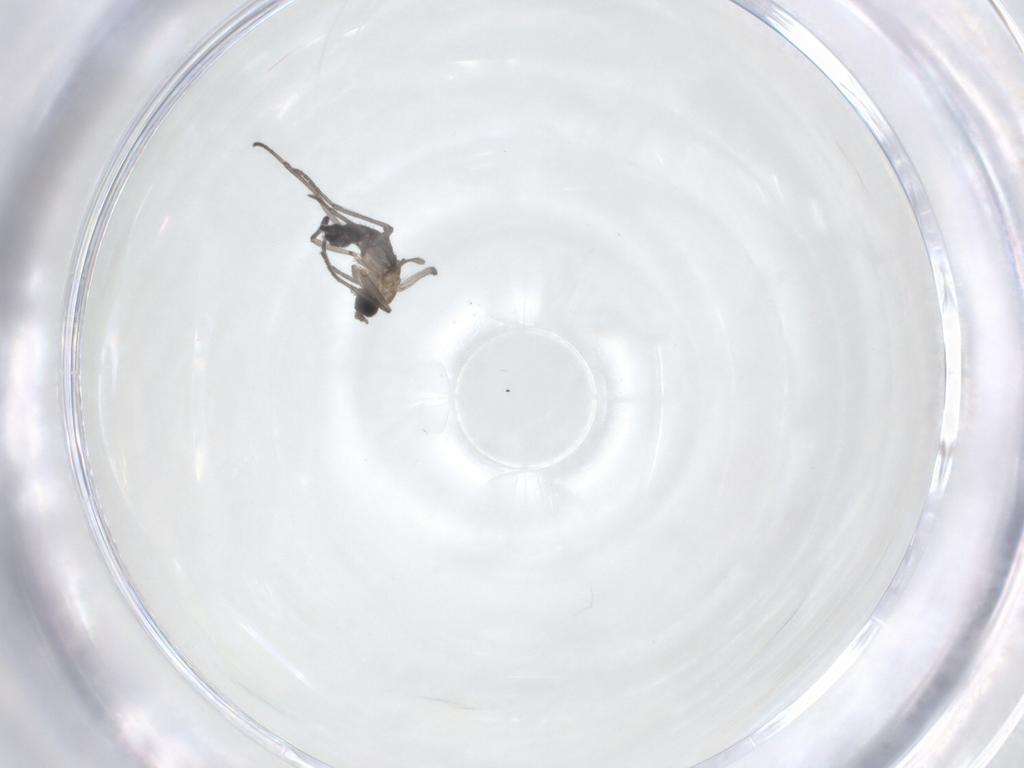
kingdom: Animalia
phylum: Arthropoda
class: Insecta
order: Diptera
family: Sciaridae
